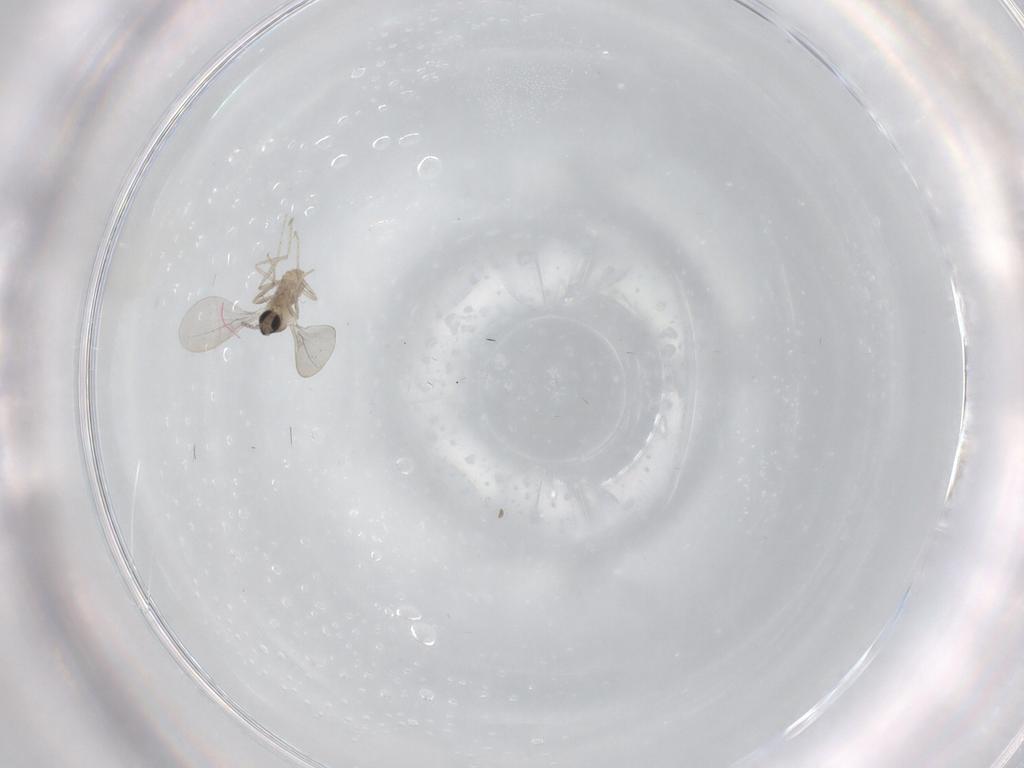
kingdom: Animalia
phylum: Arthropoda
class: Insecta
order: Diptera
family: Cecidomyiidae
